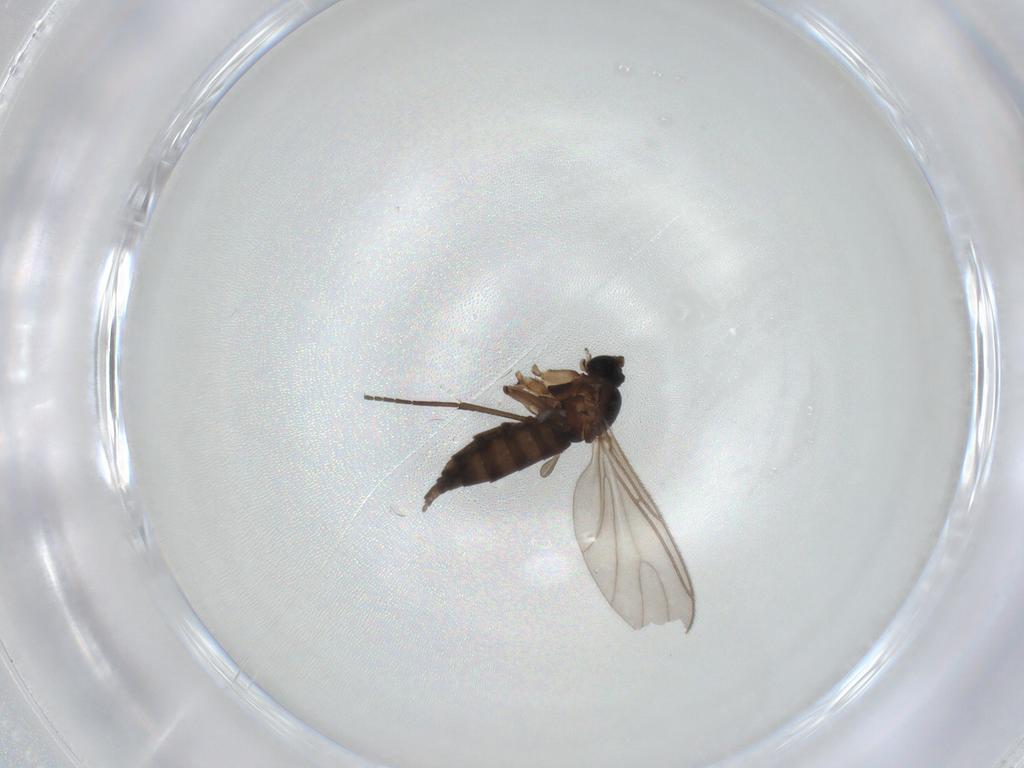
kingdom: Animalia
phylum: Arthropoda
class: Insecta
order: Diptera
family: Sciaridae
